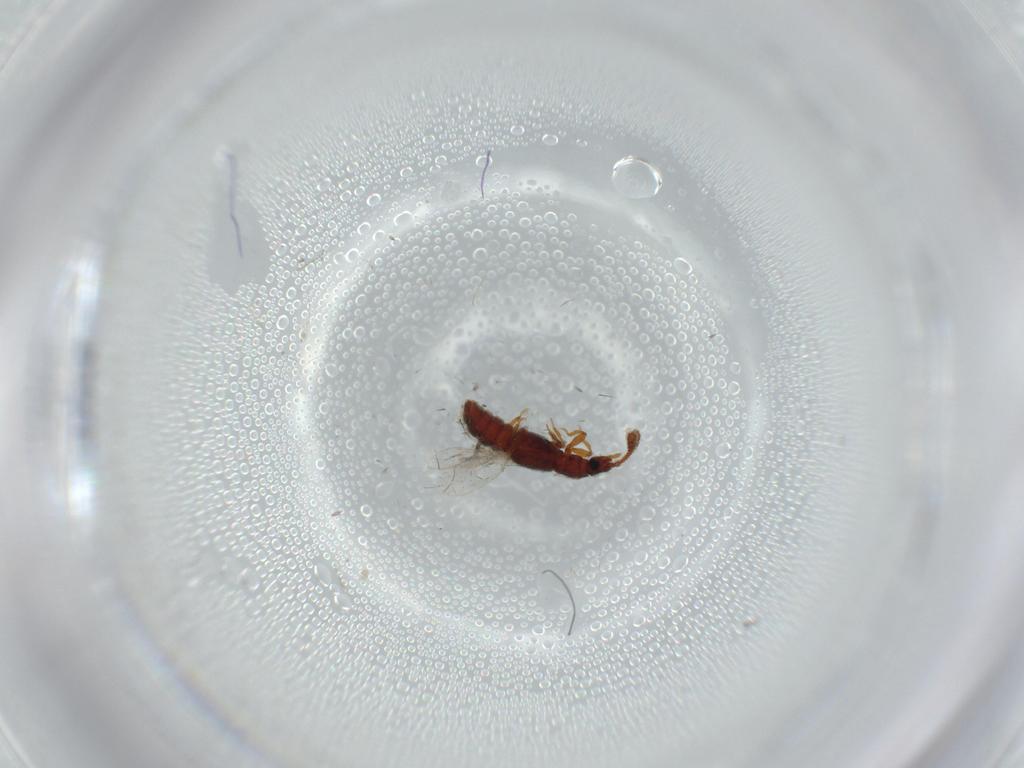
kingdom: Animalia
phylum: Arthropoda
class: Insecta
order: Coleoptera
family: Staphylinidae
